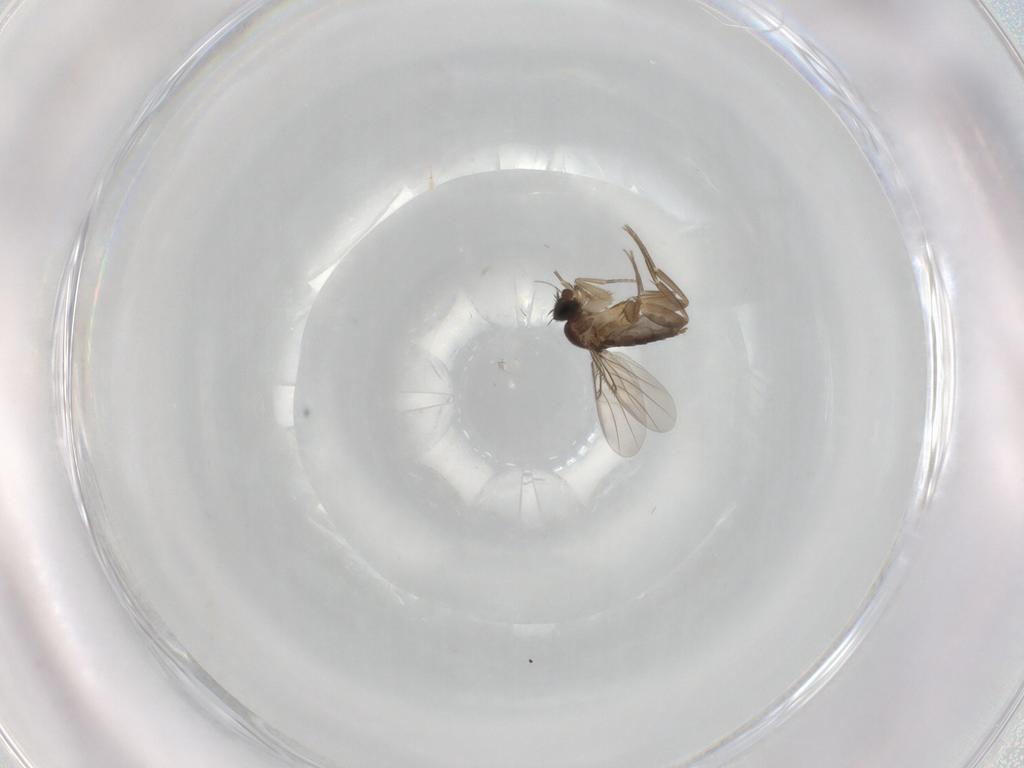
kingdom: Animalia
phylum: Arthropoda
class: Insecta
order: Diptera
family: Phoridae
